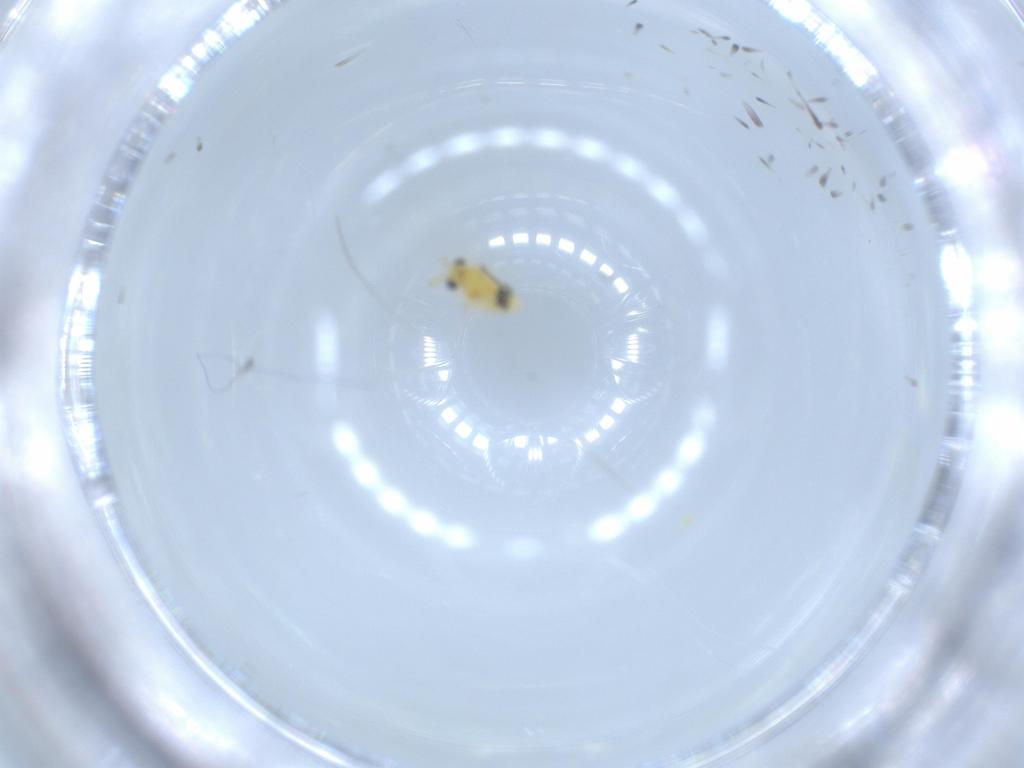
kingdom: Animalia
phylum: Arthropoda
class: Insecta
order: Hymenoptera
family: Aphelinidae
